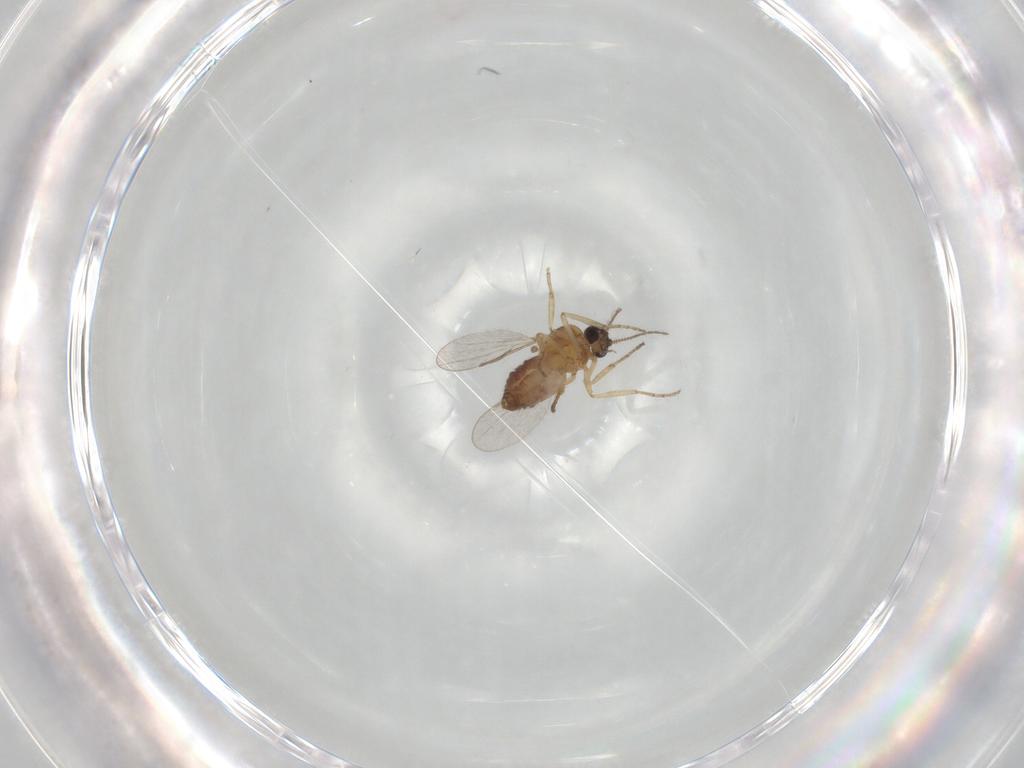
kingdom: Animalia
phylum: Arthropoda
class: Insecta
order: Diptera
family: Ceratopogonidae
